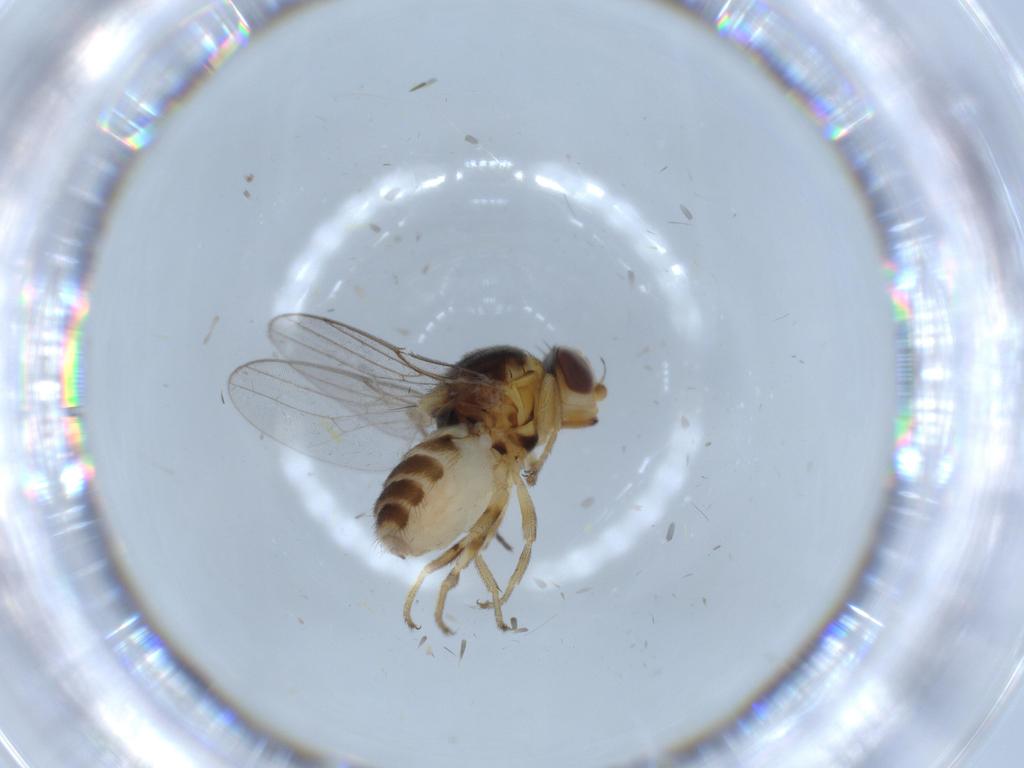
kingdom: Animalia
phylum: Arthropoda
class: Insecta
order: Diptera
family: Chloropidae
